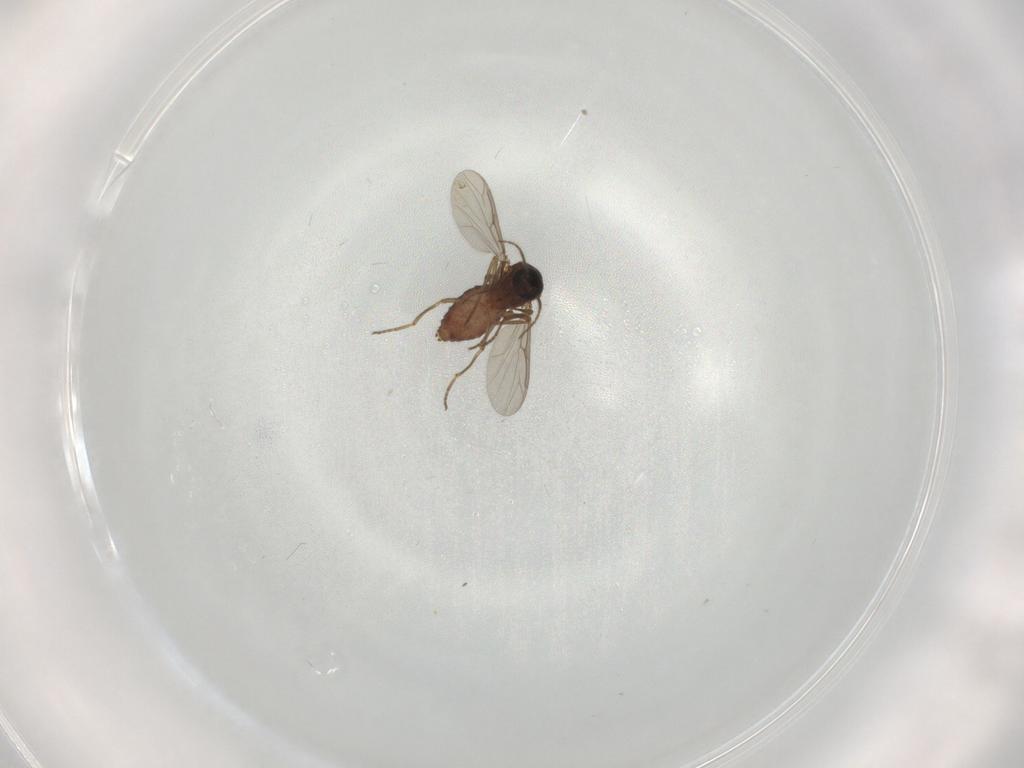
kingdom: Animalia
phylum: Arthropoda
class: Insecta
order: Diptera
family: Ceratopogonidae
